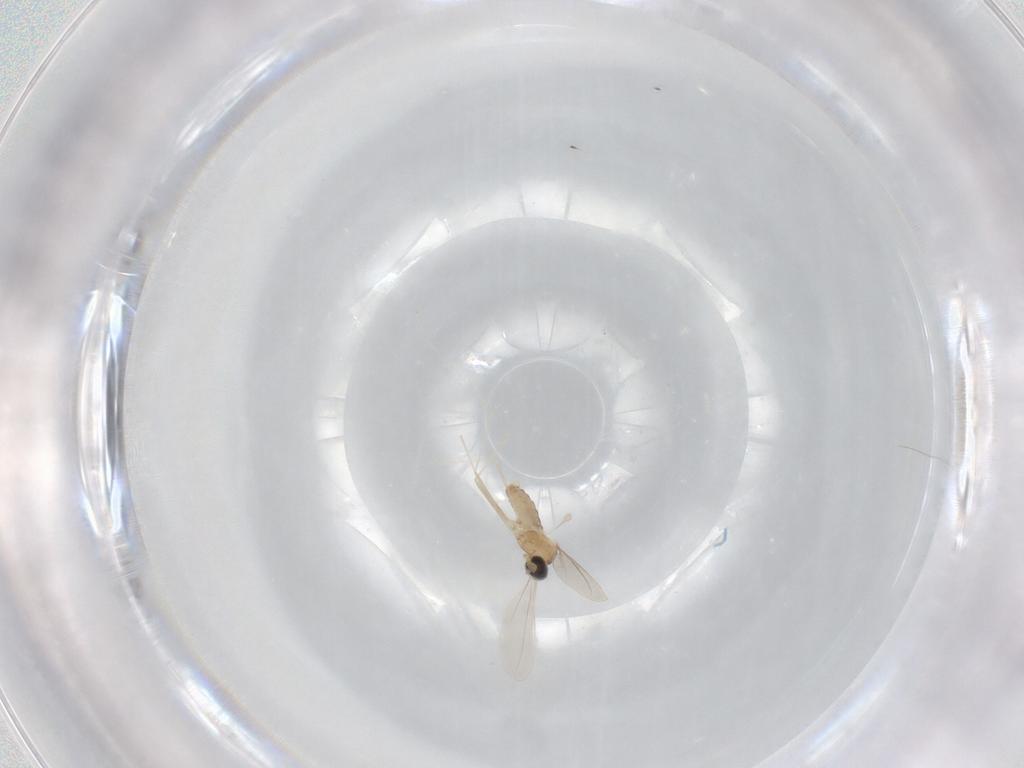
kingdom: Animalia
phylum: Arthropoda
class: Insecta
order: Diptera
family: Cecidomyiidae
